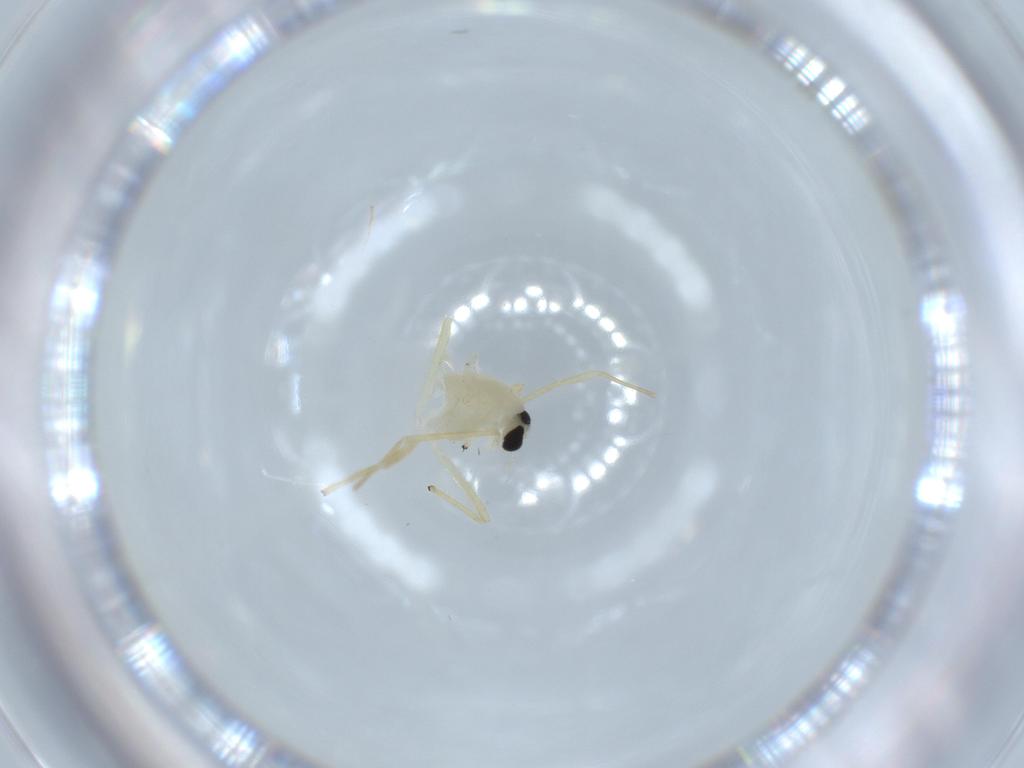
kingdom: Animalia
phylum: Arthropoda
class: Insecta
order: Diptera
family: Chironomidae
